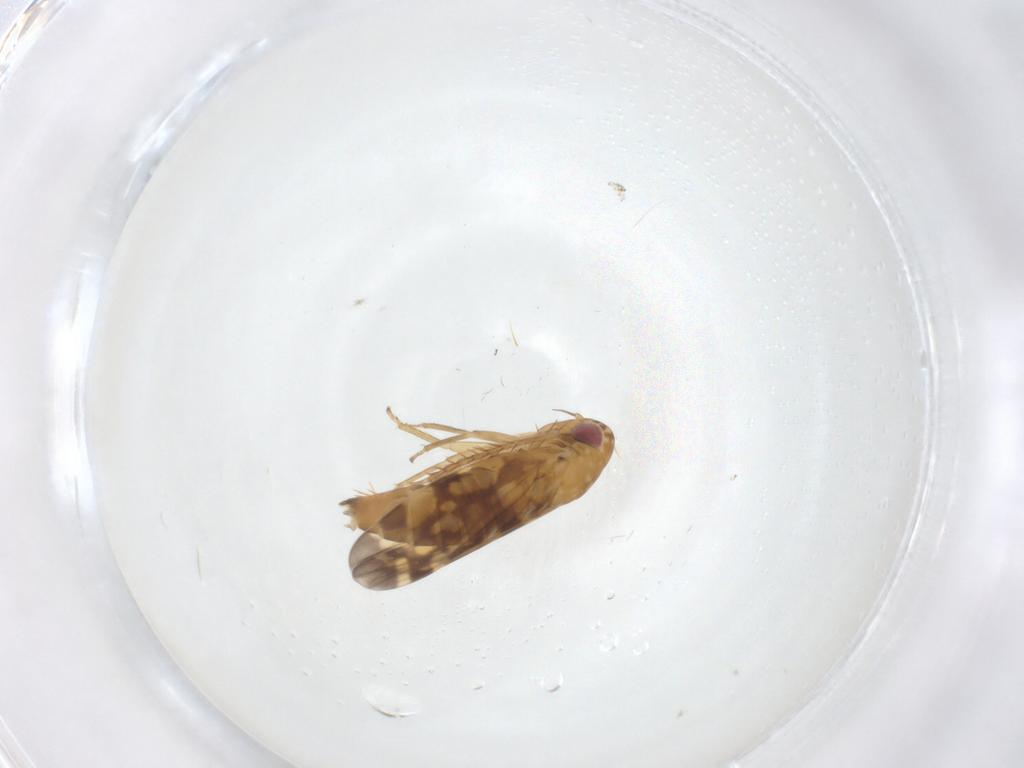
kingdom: Animalia
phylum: Arthropoda
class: Insecta
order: Hemiptera
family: Cicadellidae
